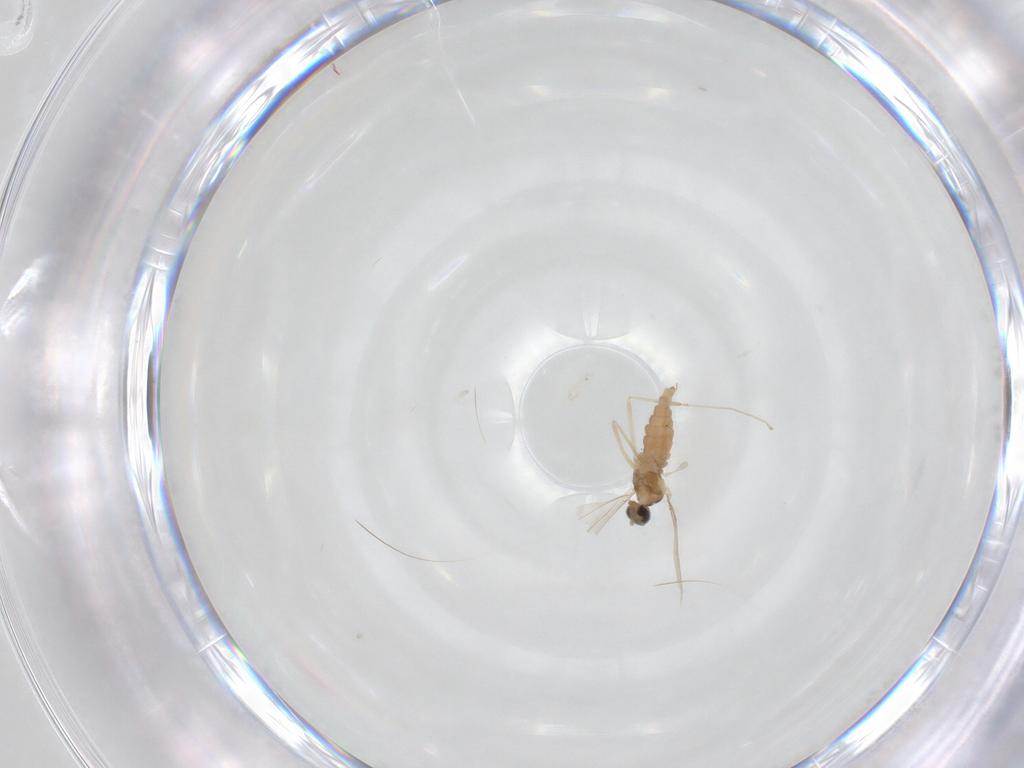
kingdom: Animalia
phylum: Arthropoda
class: Insecta
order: Diptera
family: Cecidomyiidae
